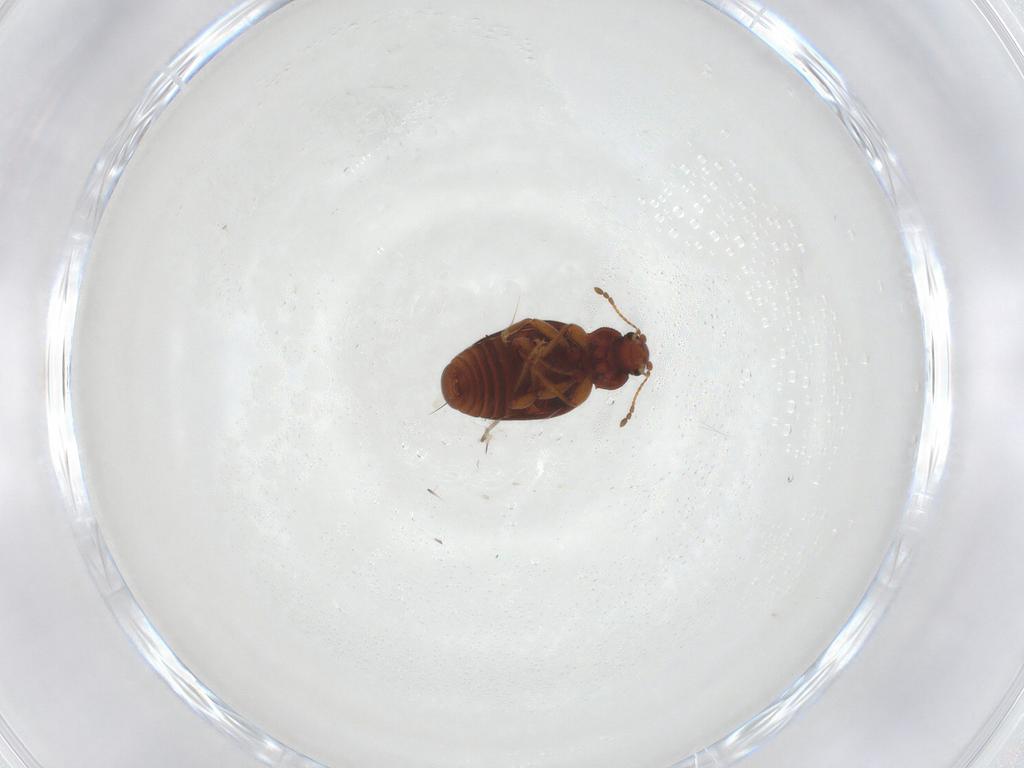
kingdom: Animalia
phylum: Arthropoda
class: Insecta
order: Coleoptera
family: Latridiidae
